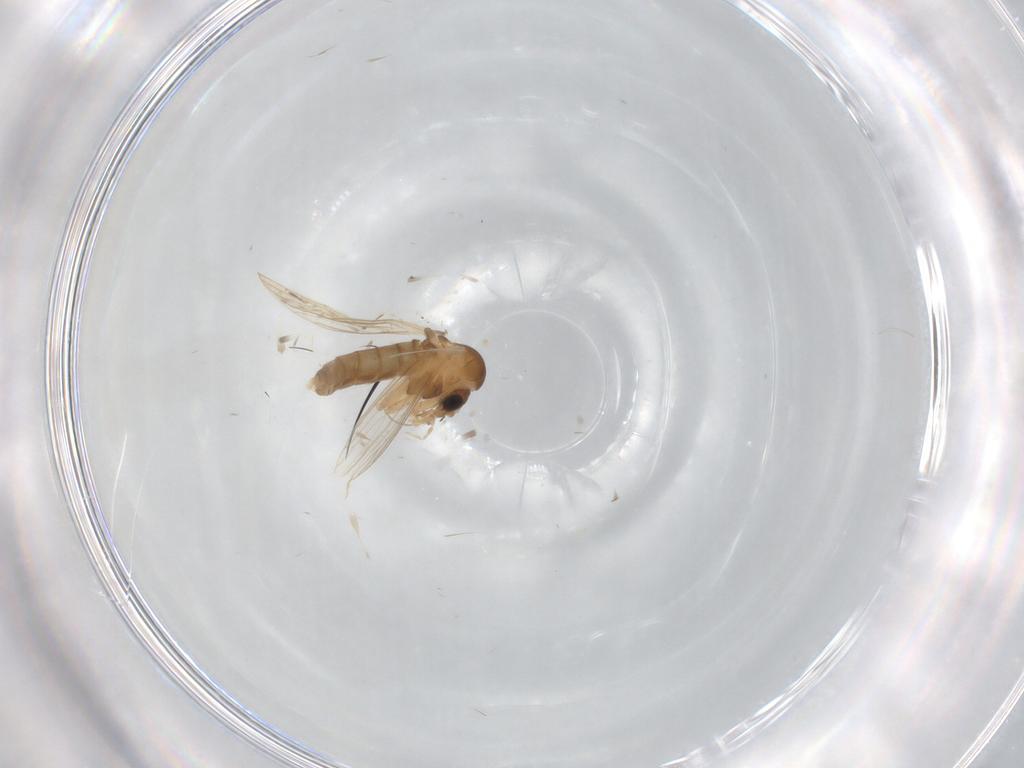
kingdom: Animalia
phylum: Arthropoda
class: Insecta
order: Diptera
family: Psychodidae
